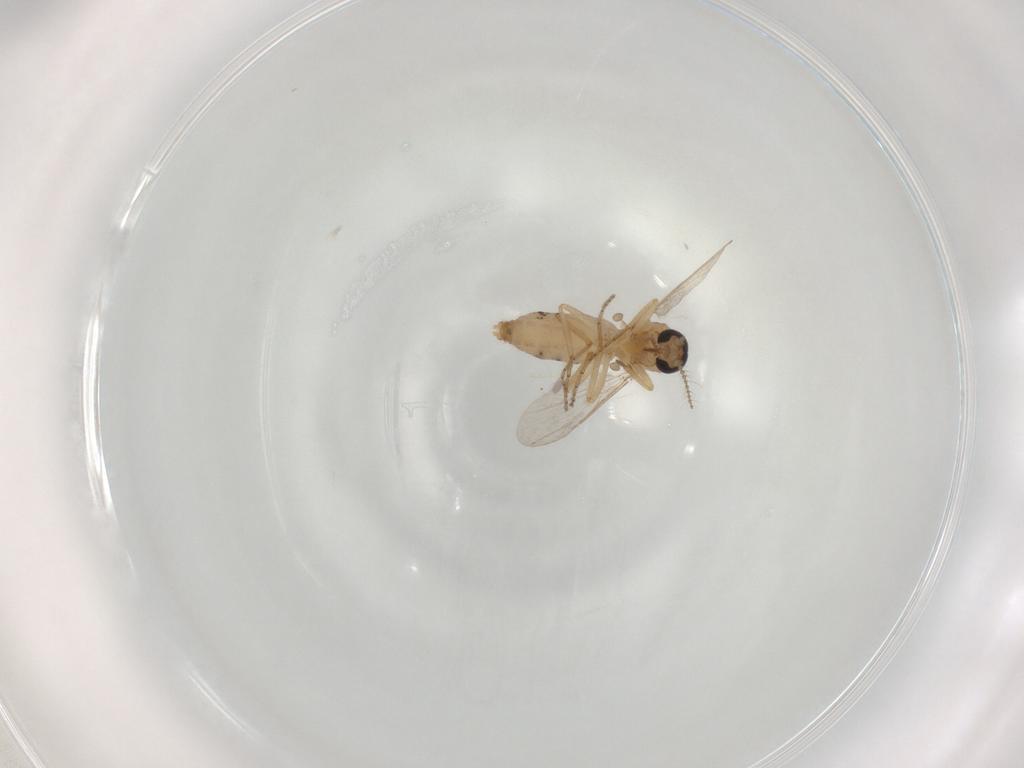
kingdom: Animalia
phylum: Arthropoda
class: Insecta
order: Diptera
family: Ceratopogonidae
